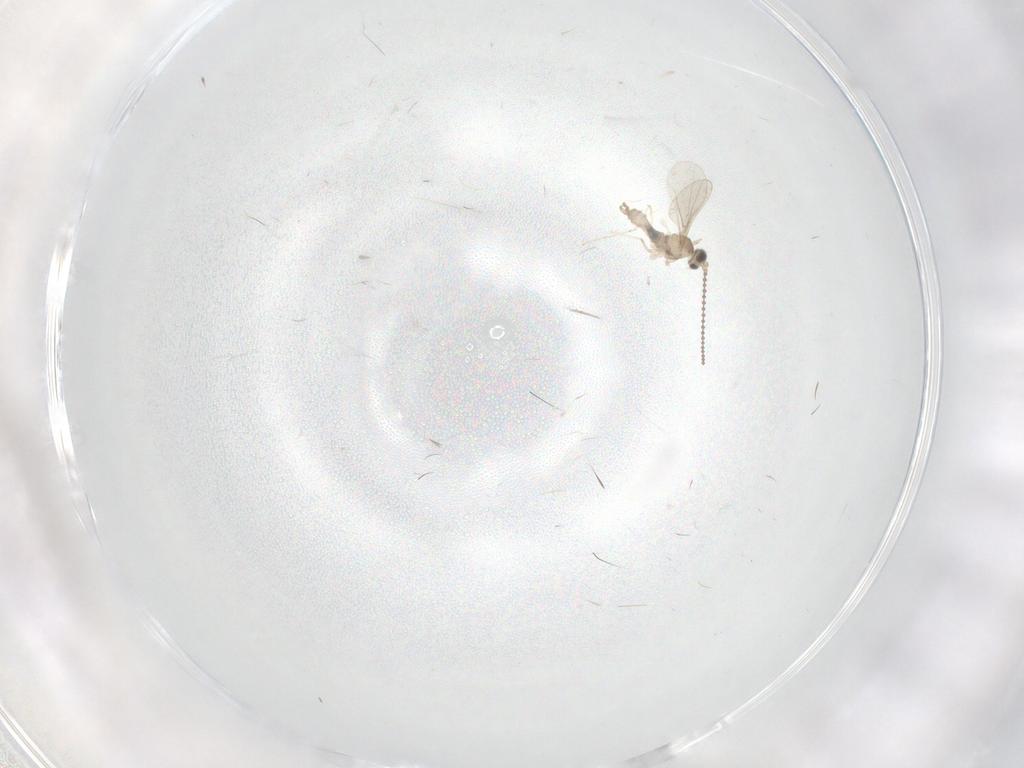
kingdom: Animalia
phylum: Arthropoda
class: Insecta
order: Diptera
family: Cecidomyiidae
